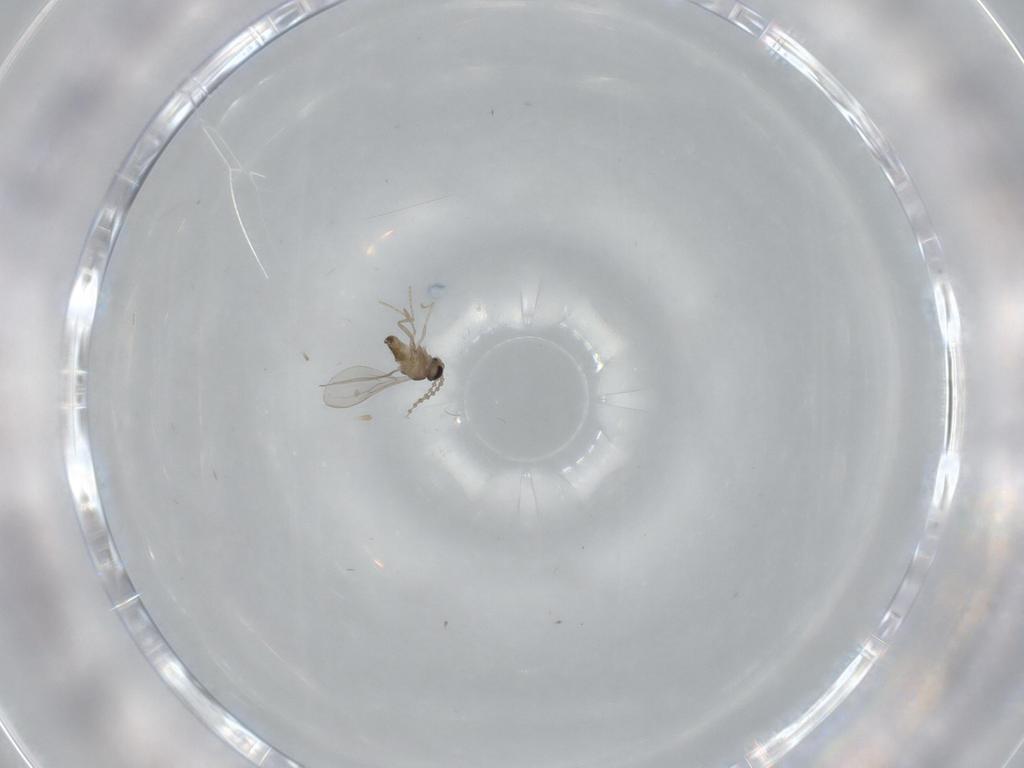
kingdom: Animalia
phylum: Arthropoda
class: Insecta
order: Diptera
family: Cecidomyiidae
